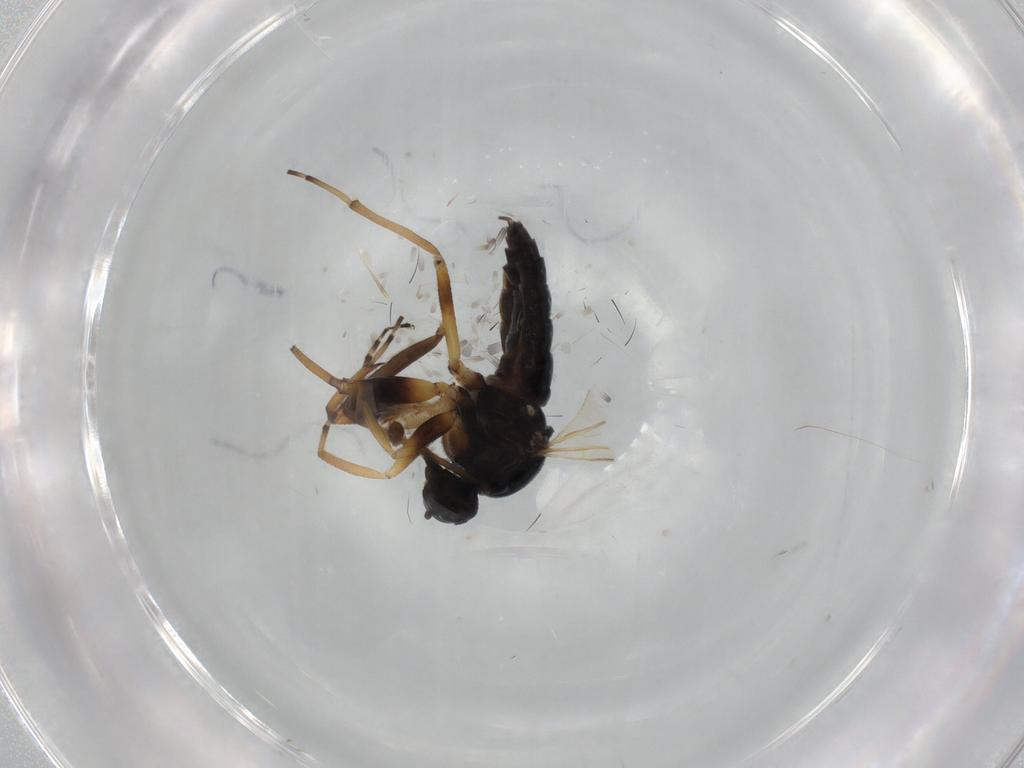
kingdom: Animalia
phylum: Arthropoda
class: Insecta
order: Diptera
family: Hybotidae
